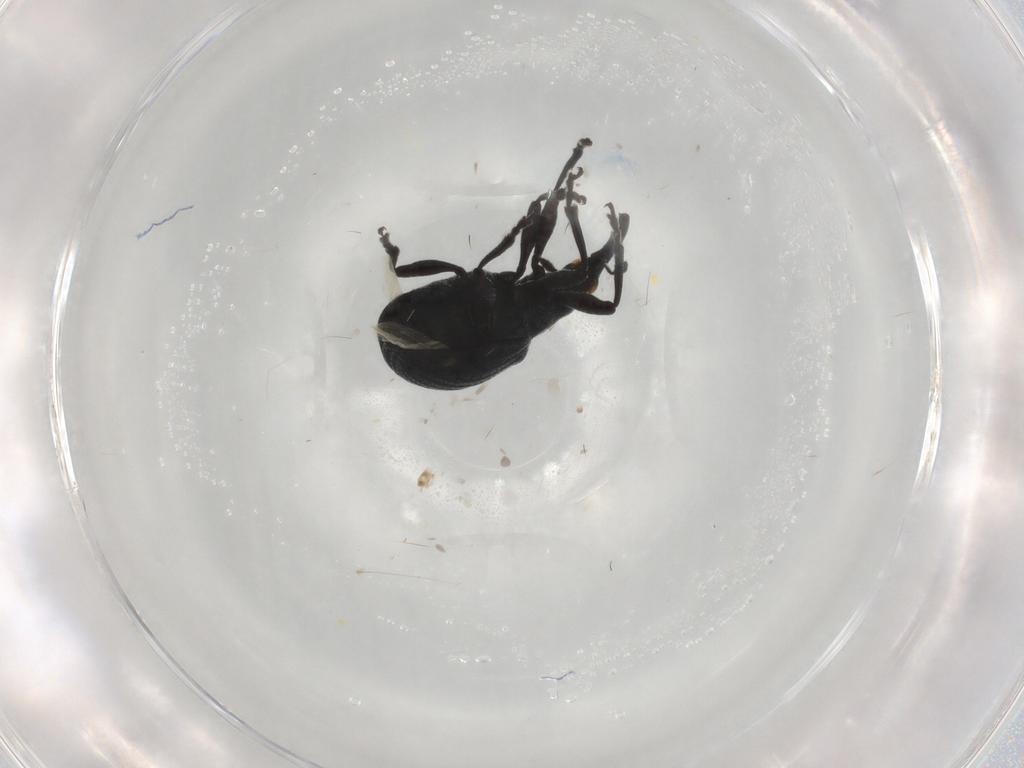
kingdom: Animalia
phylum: Arthropoda
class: Insecta
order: Coleoptera
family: Brentidae
